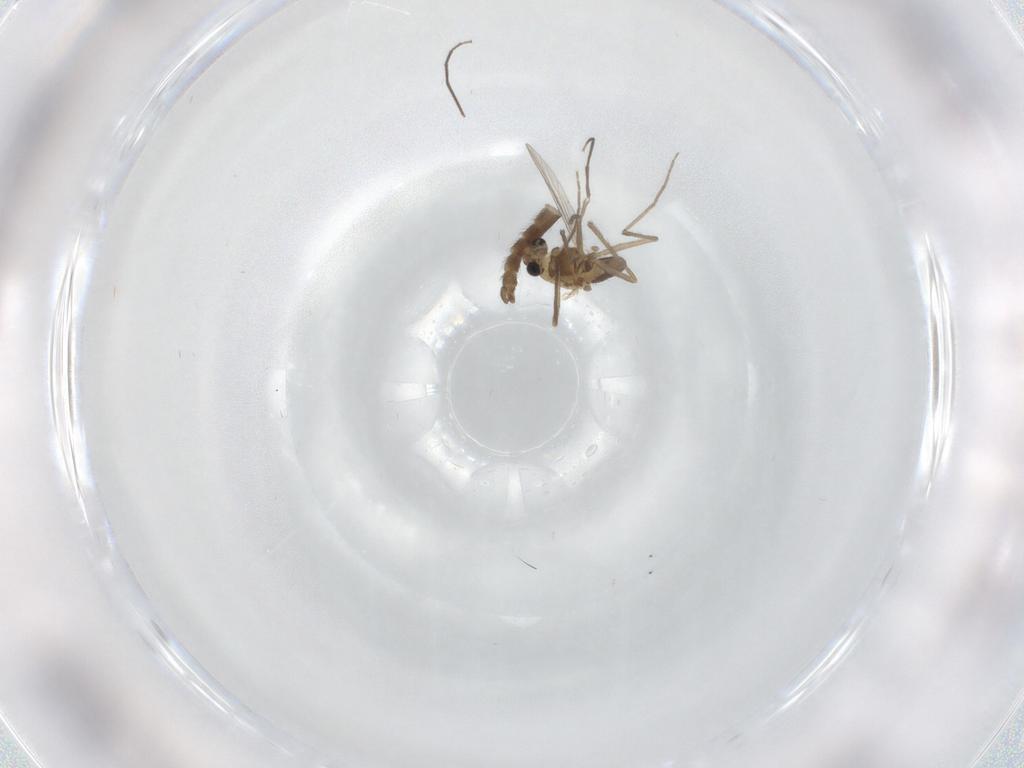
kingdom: Animalia
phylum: Arthropoda
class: Insecta
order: Diptera
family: Chironomidae
